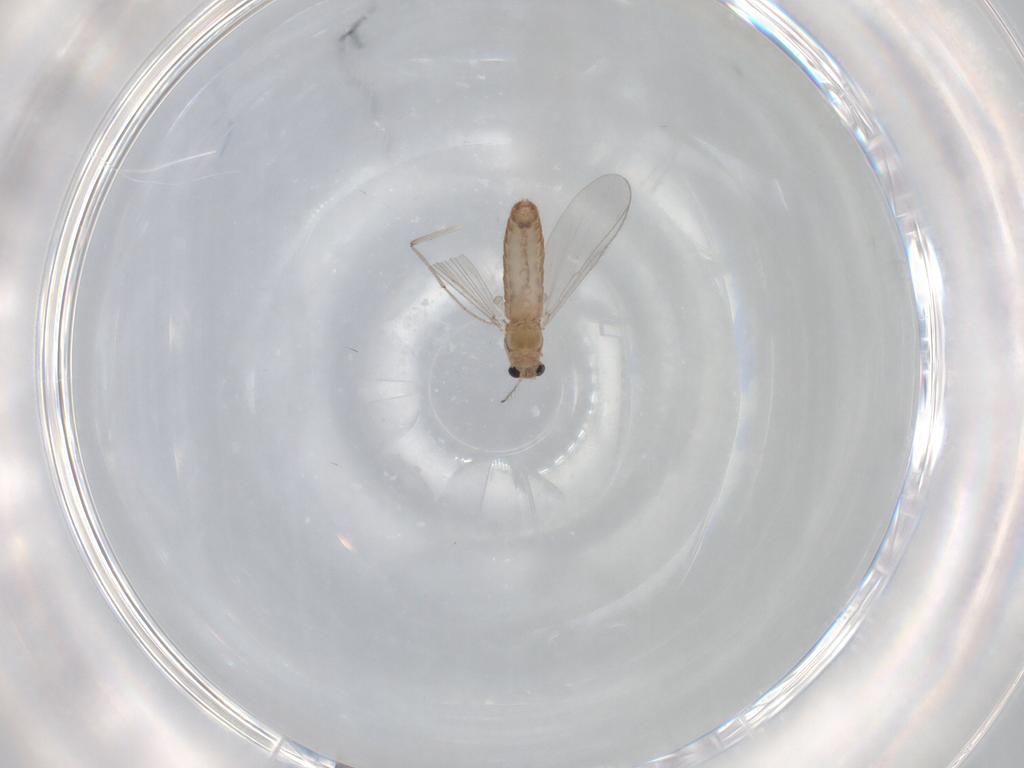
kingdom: Animalia
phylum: Arthropoda
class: Insecta
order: Diptera
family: Chironomidae
